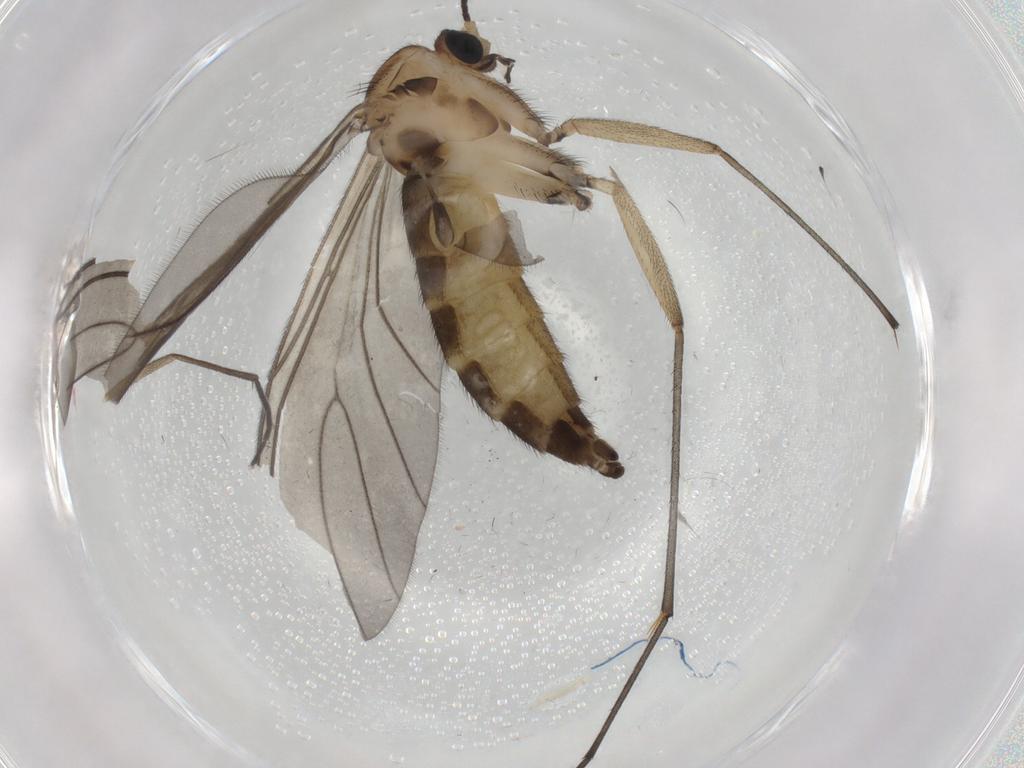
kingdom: Animalia
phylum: Arthropoda
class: Insecta
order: Diptera
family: Sciaridae
